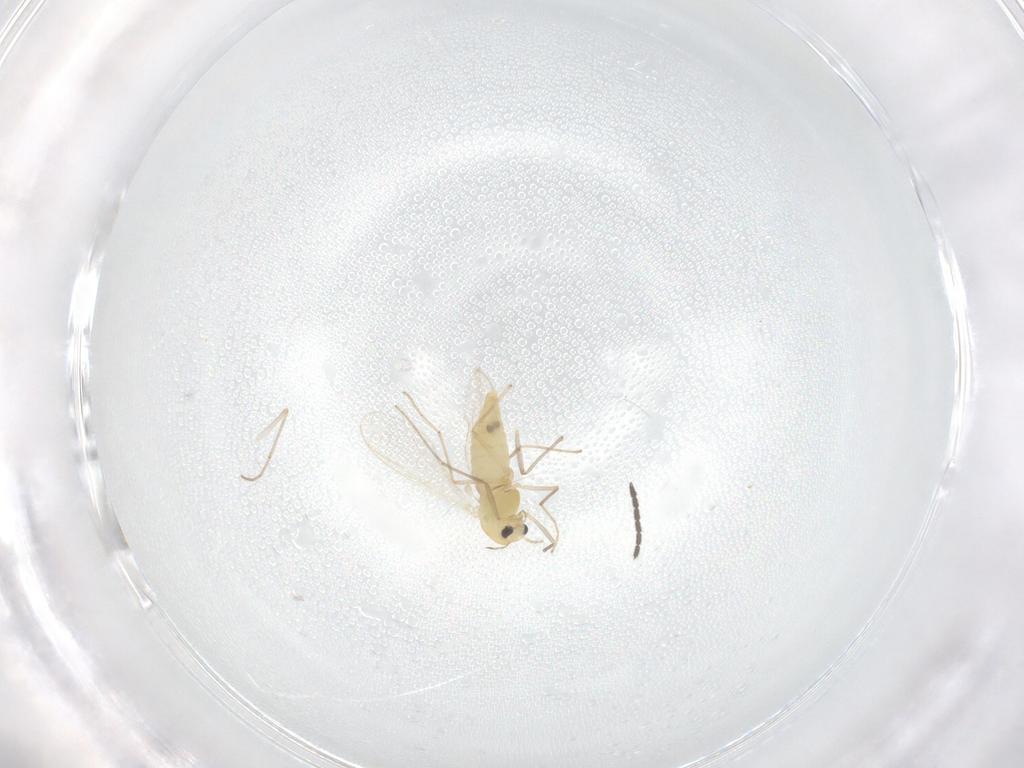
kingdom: Animalia
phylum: Arthropoda
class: Insecta
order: Diptera
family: Chironomidae
